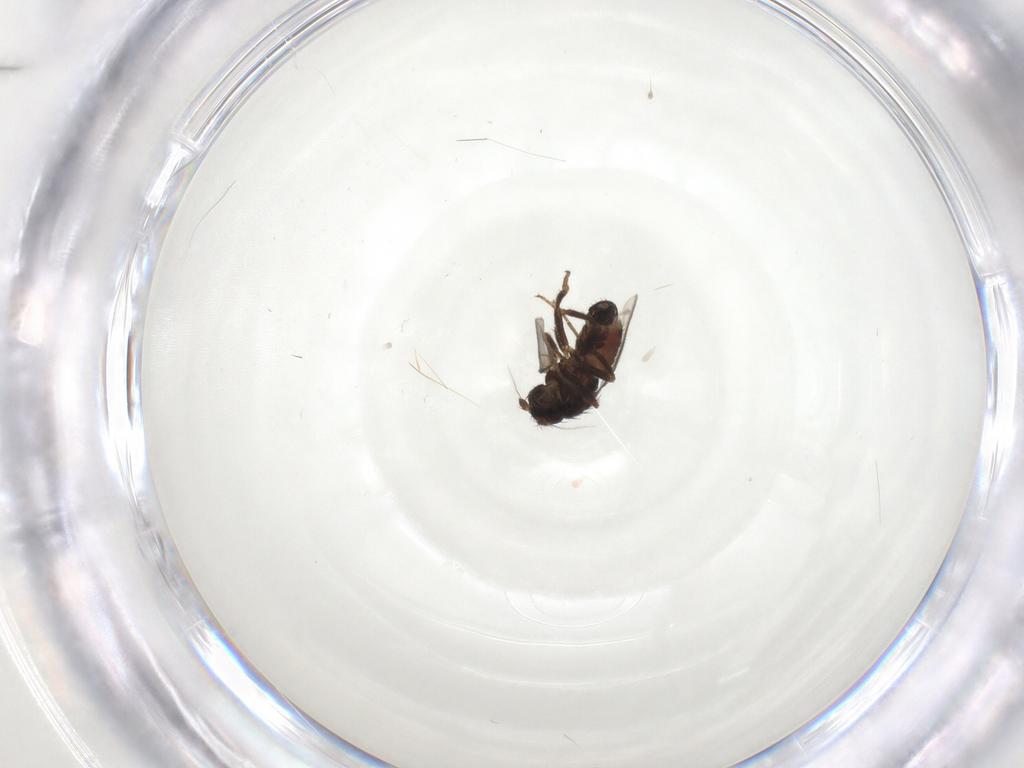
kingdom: Animalia
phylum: Arthropoda
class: Insecta
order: Diptera
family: Sphaeroceridae
